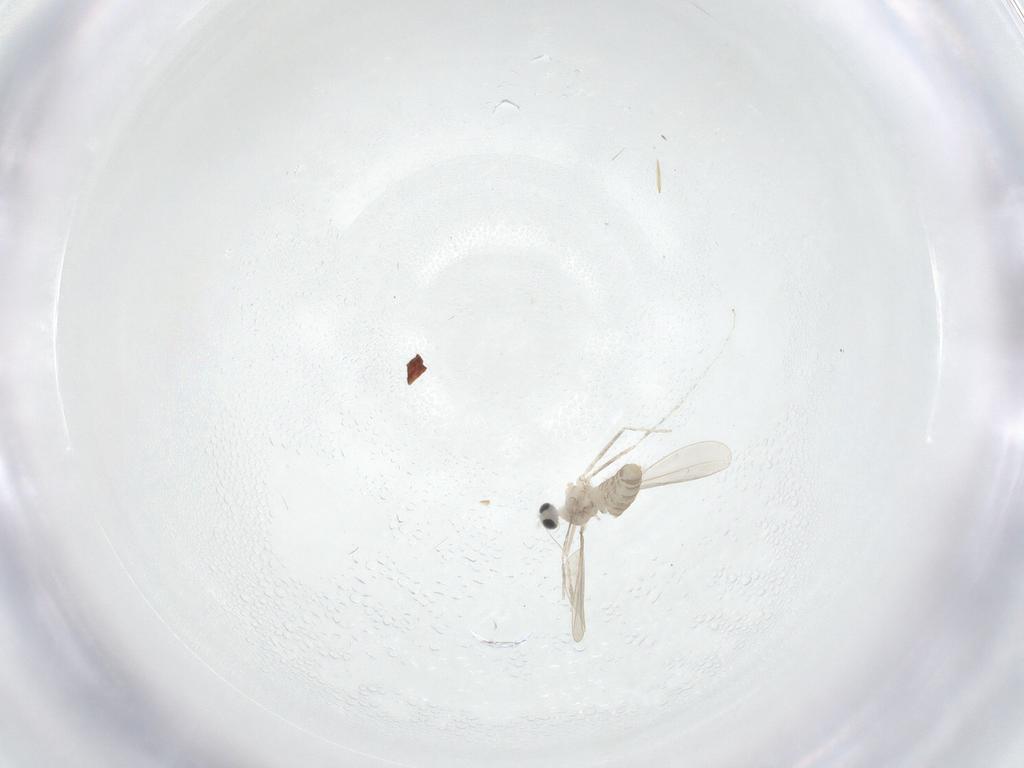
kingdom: Animalia
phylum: Arthropoda
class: Insecta
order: Diptera
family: Cecidomyiidae
